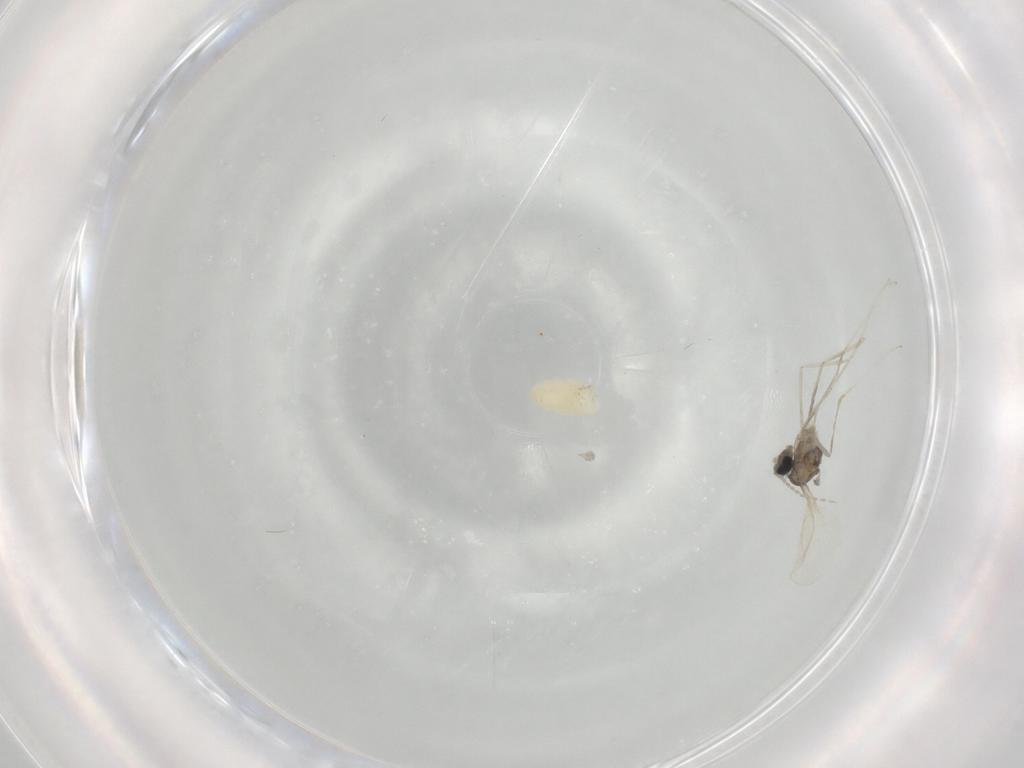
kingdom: Animalia
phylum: Arthropoda
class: Insecta
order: Diptera
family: Cecidomyiidae
